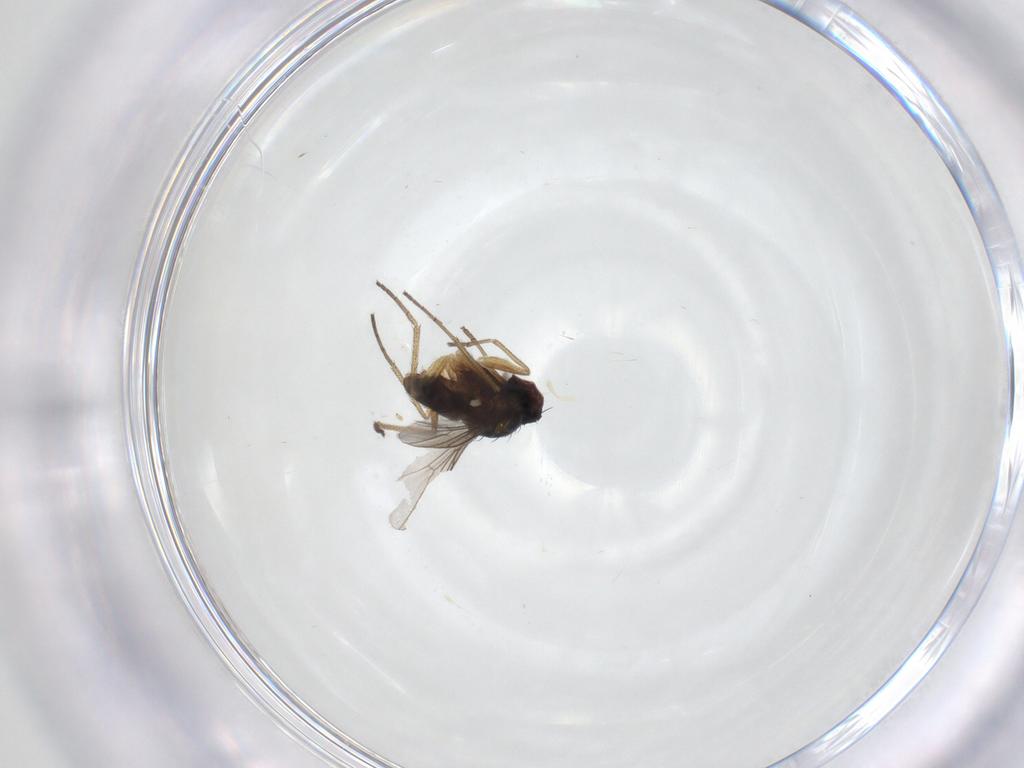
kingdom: Animalia
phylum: Arthropoda
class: Insecta
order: Diptera
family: Dolichopodidae
